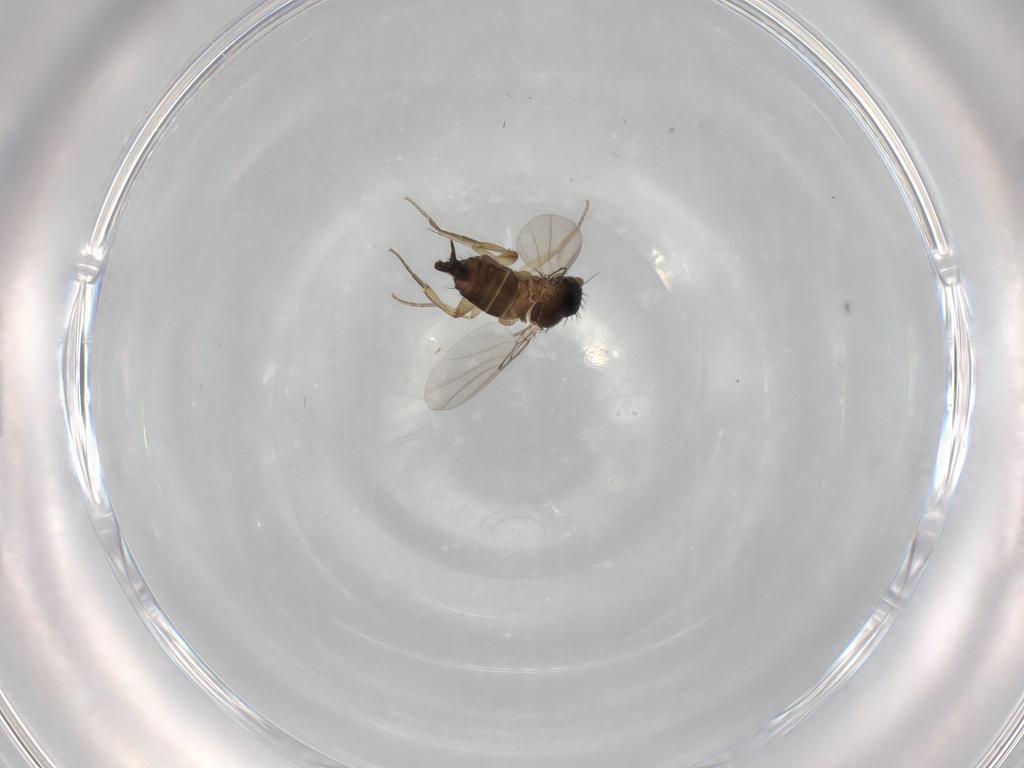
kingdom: Animalia
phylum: Arthropoda
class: Insecta
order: Diptera
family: Phoridae
